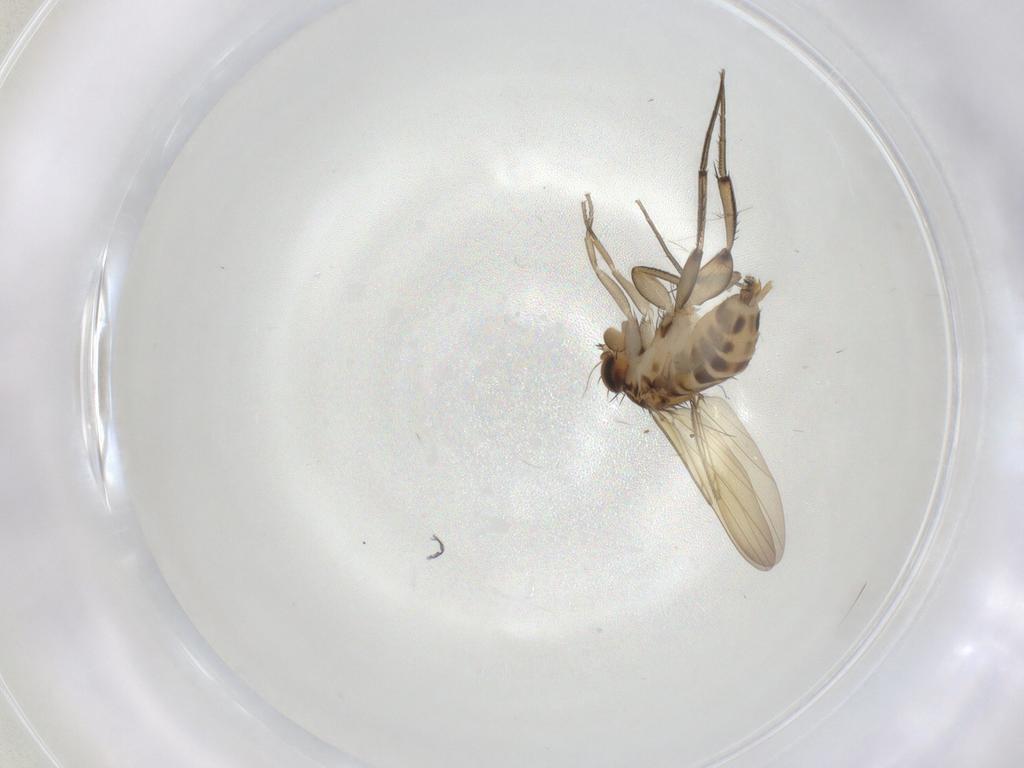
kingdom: Animalia
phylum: Arthropoda
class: Insecta
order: Diptera
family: Phoridae
